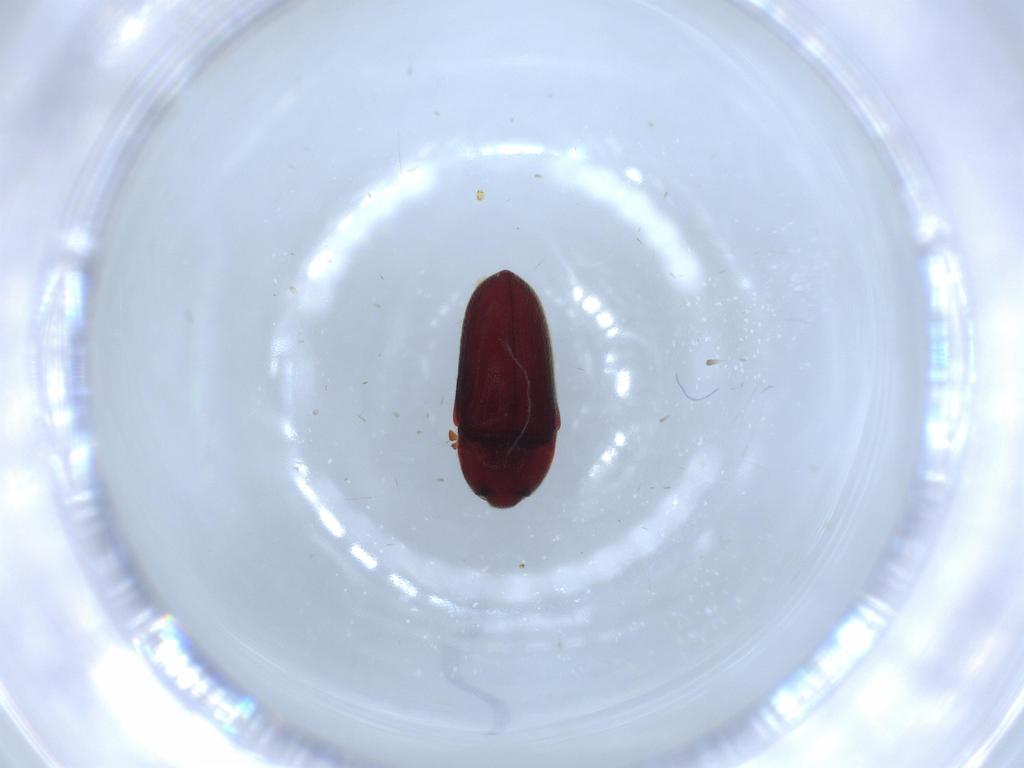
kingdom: Animalia
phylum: Arthropoda
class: Insecta
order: Coleoptera
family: Throscidae
